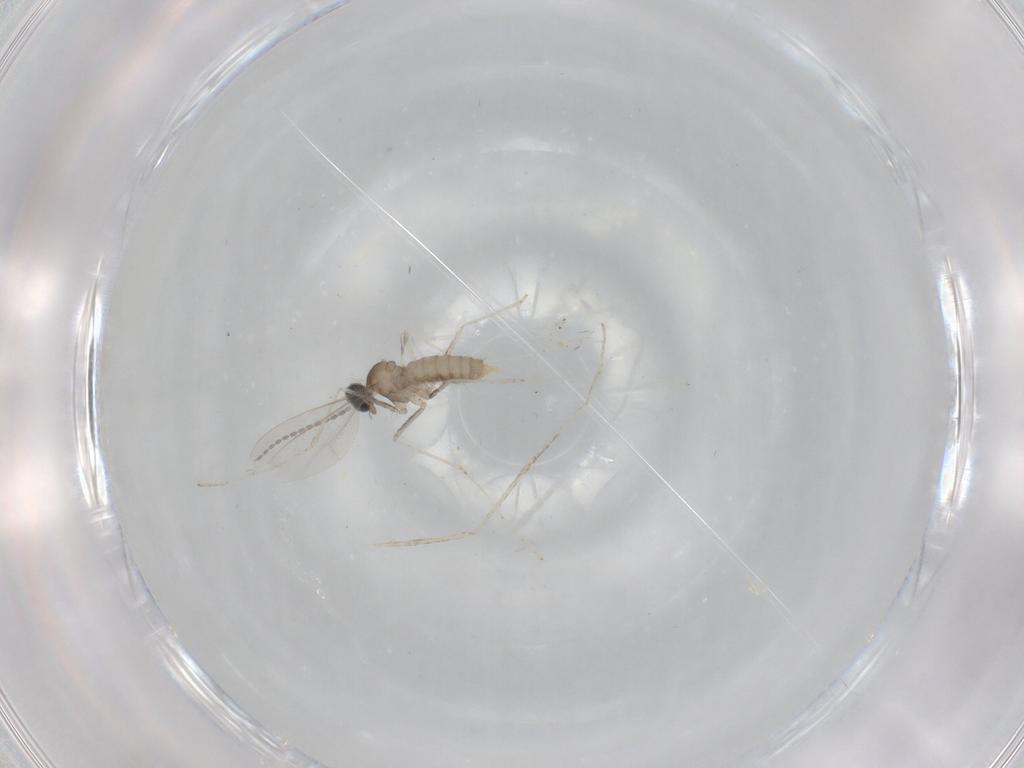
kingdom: Animalia
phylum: Arthropoda
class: Insecta
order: Diptera
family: Cecidomyiidae
